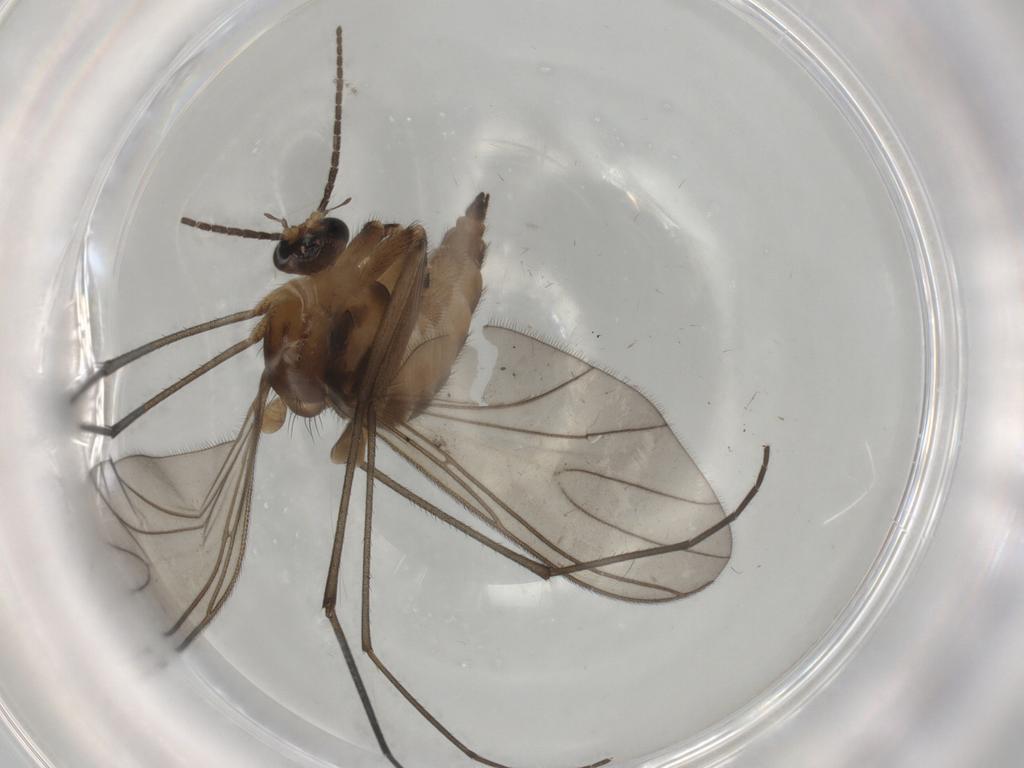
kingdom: Animalia
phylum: Arthropoda
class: Insecta
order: Diptera
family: Sciaridae
